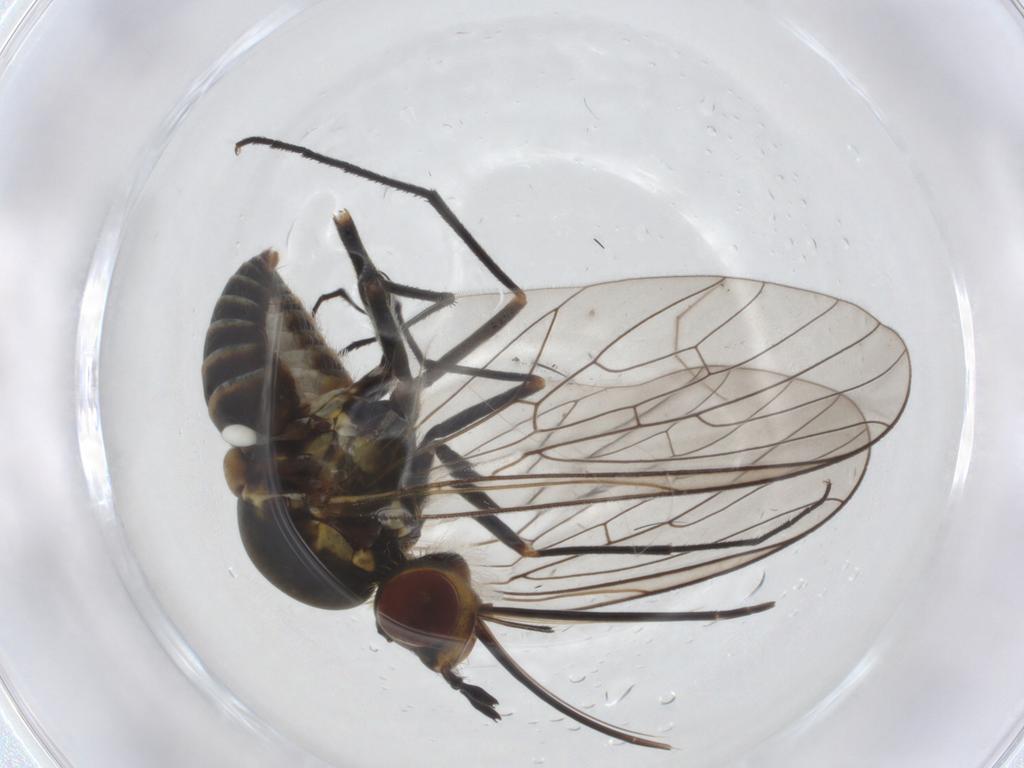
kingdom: Animalia
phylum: Arthropoda
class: Insecta
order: Diptera
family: Bombyliidae
